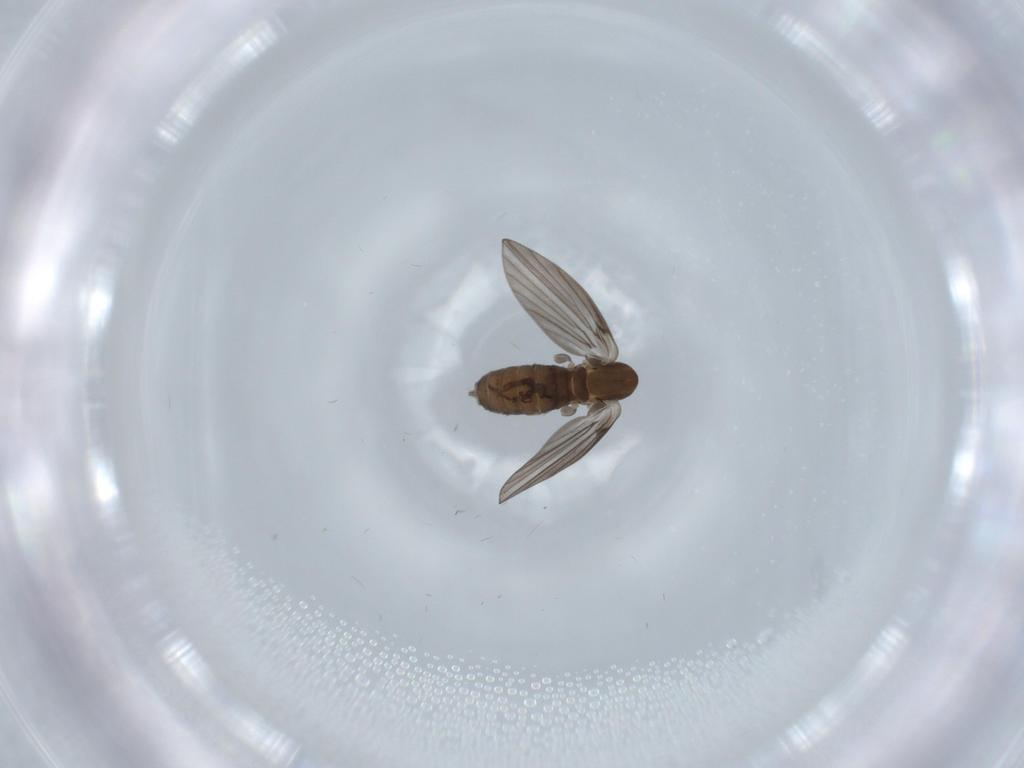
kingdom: Animalia
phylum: Arthropoda
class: Insecta
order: Diptera
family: Psychodidae
